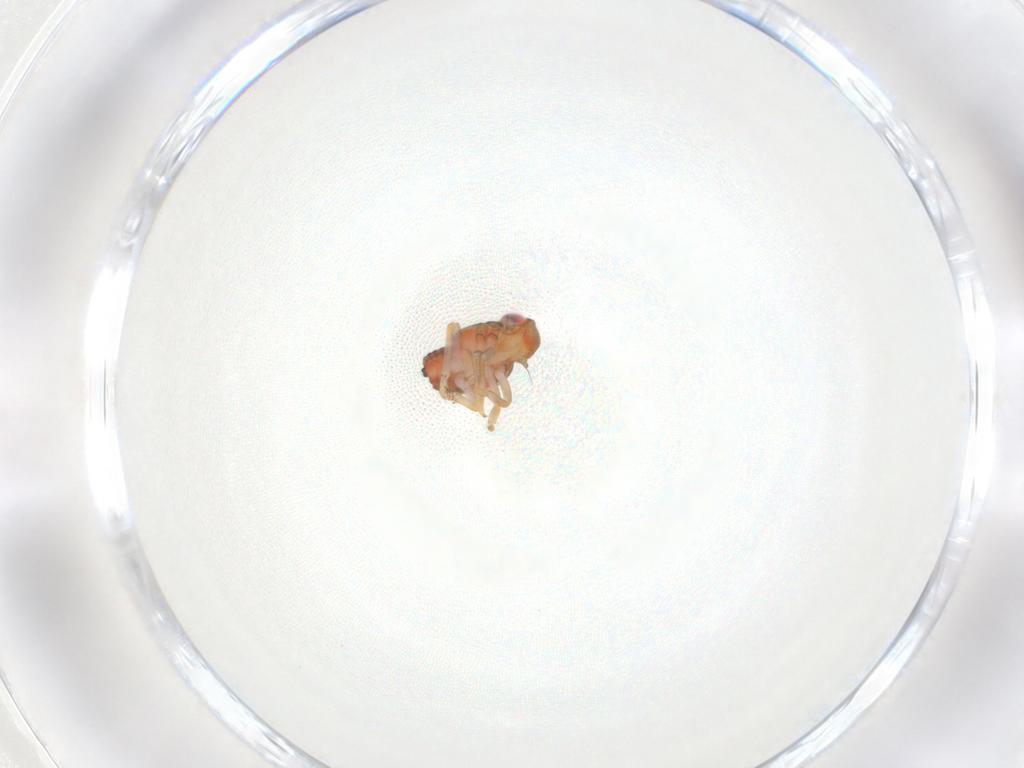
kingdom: Animalia
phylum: Arthropoda
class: Insecta
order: Hemiptera
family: Issidae
